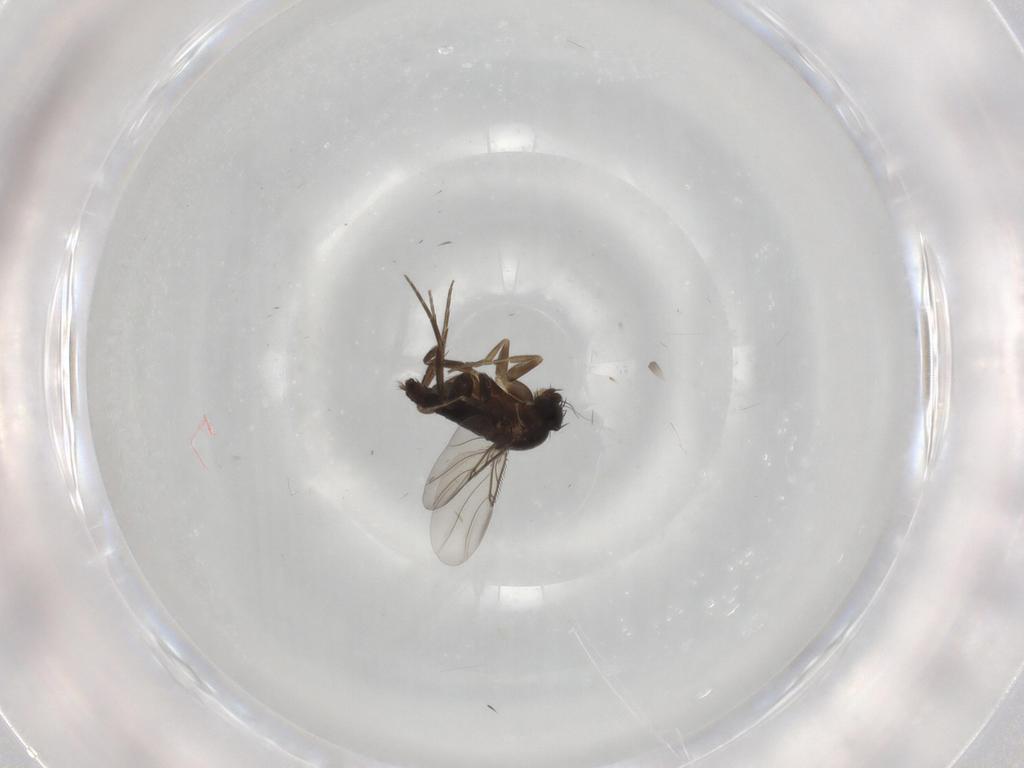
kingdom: Animalia
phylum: Arthropoda
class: Insecta
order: Diptera
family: Phoridae
